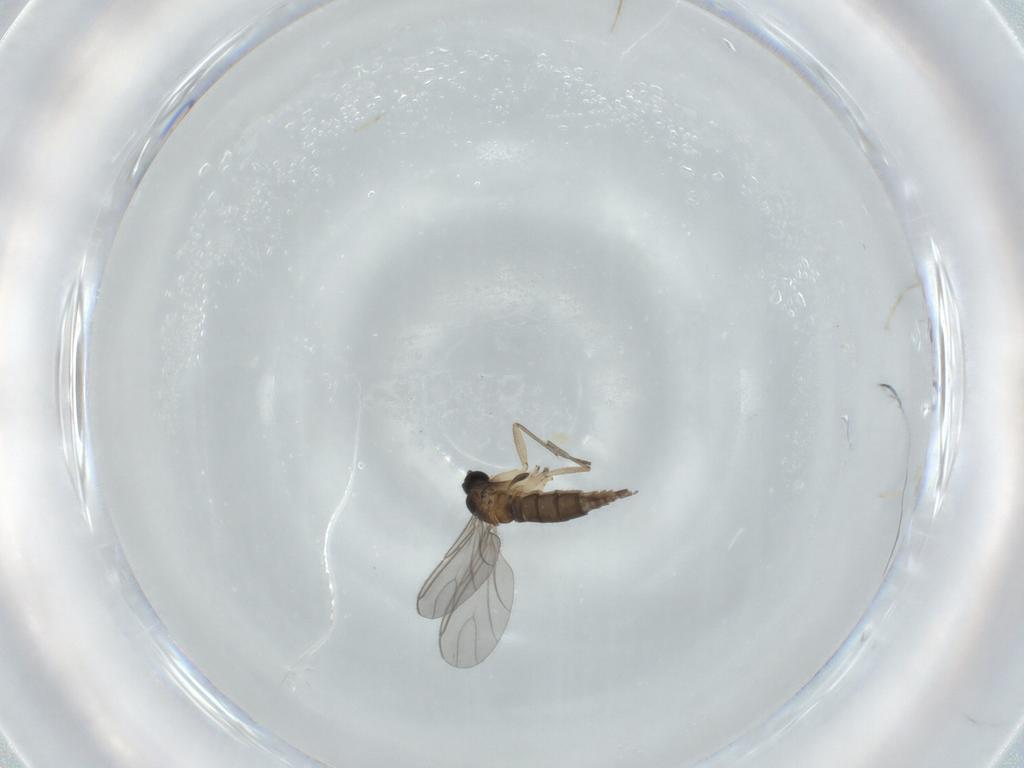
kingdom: Animalia
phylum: Arthropoda
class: Insecta
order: Diptera
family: Sciaridae
